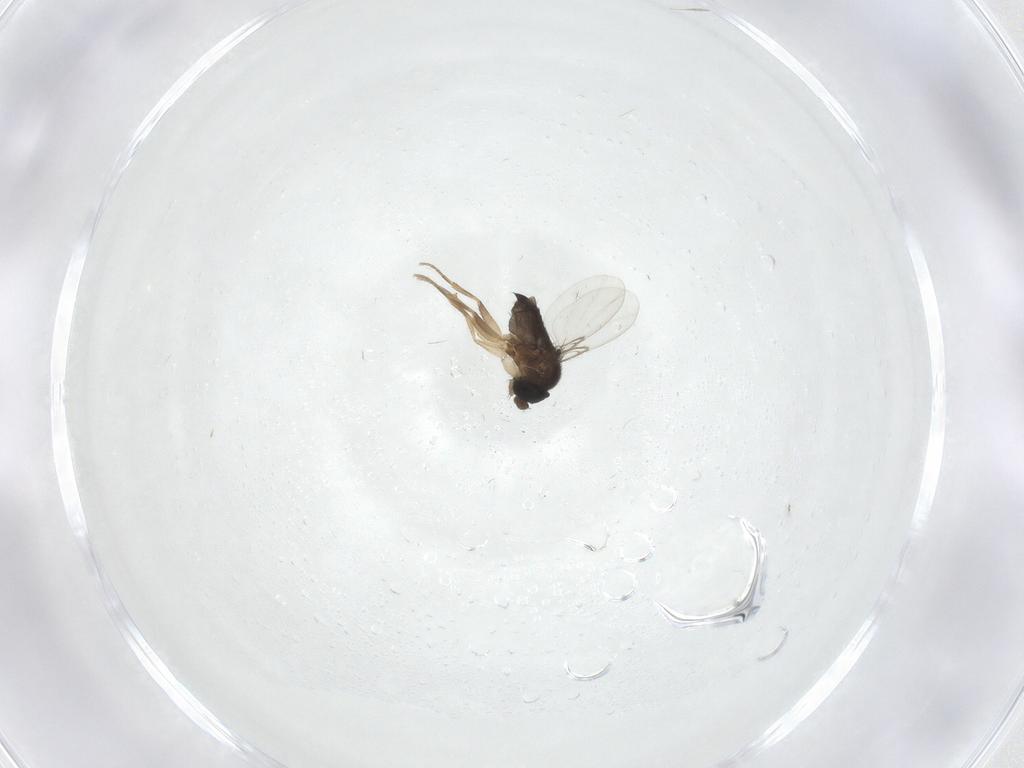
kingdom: Animalia
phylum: Arthropoda
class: Insecta
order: Diptera
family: Phoridae
